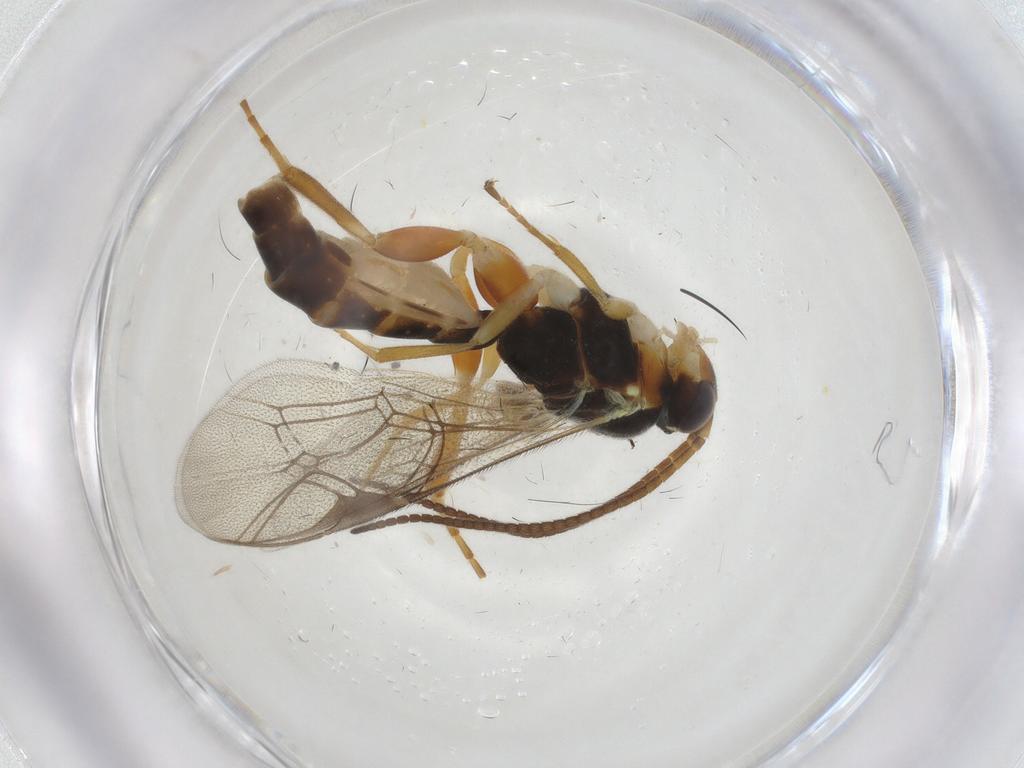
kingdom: Animalia
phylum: Arthropoda
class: Insecta
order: Hymenoptera
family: Ichneumonidae
